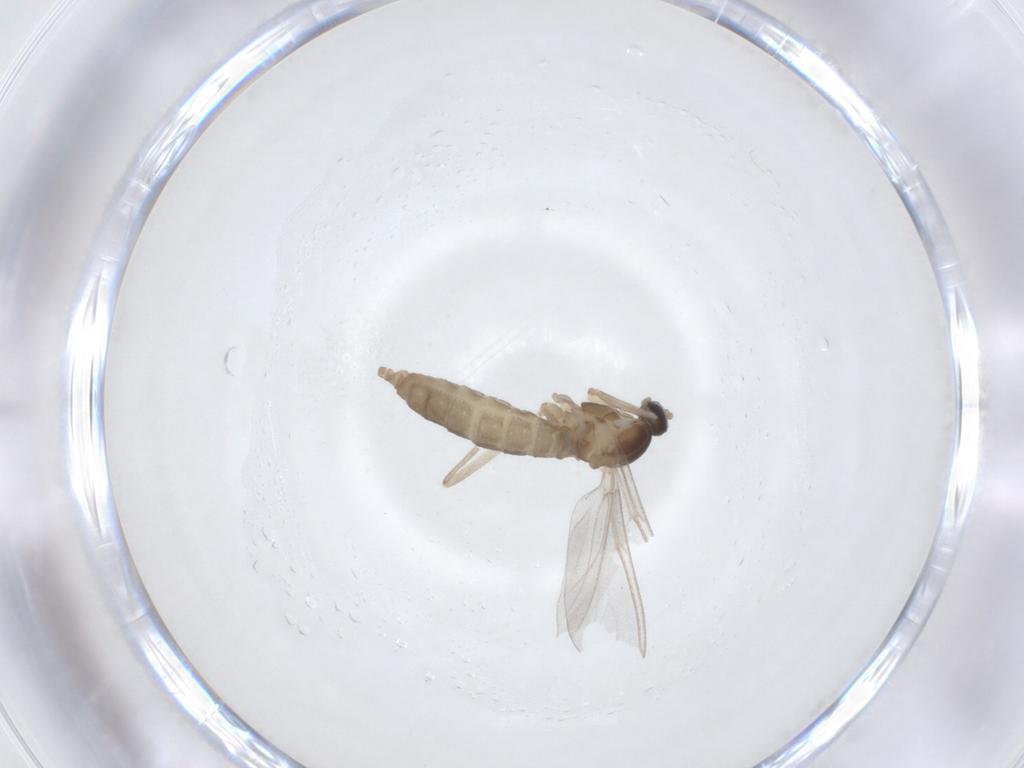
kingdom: Animalia
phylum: Arthropoda
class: Insecta
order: Diptera
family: Cecidomyiidae
